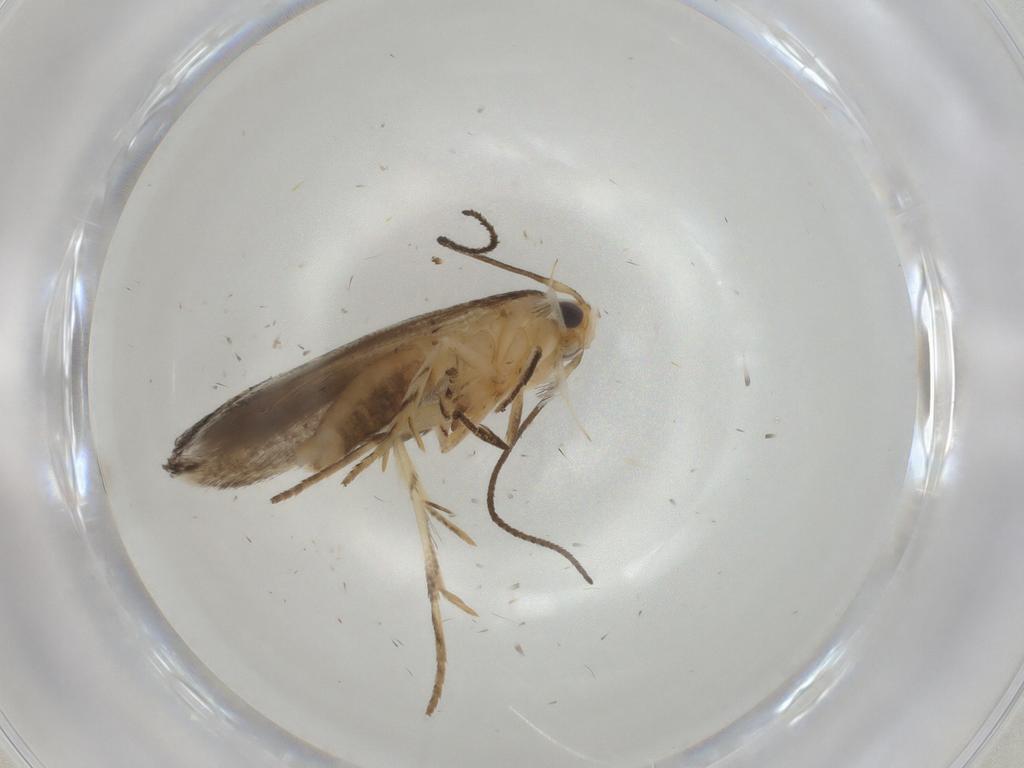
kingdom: Animalia
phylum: Arthropoda
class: Insecta
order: Lepidoptera
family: Elachistidae
